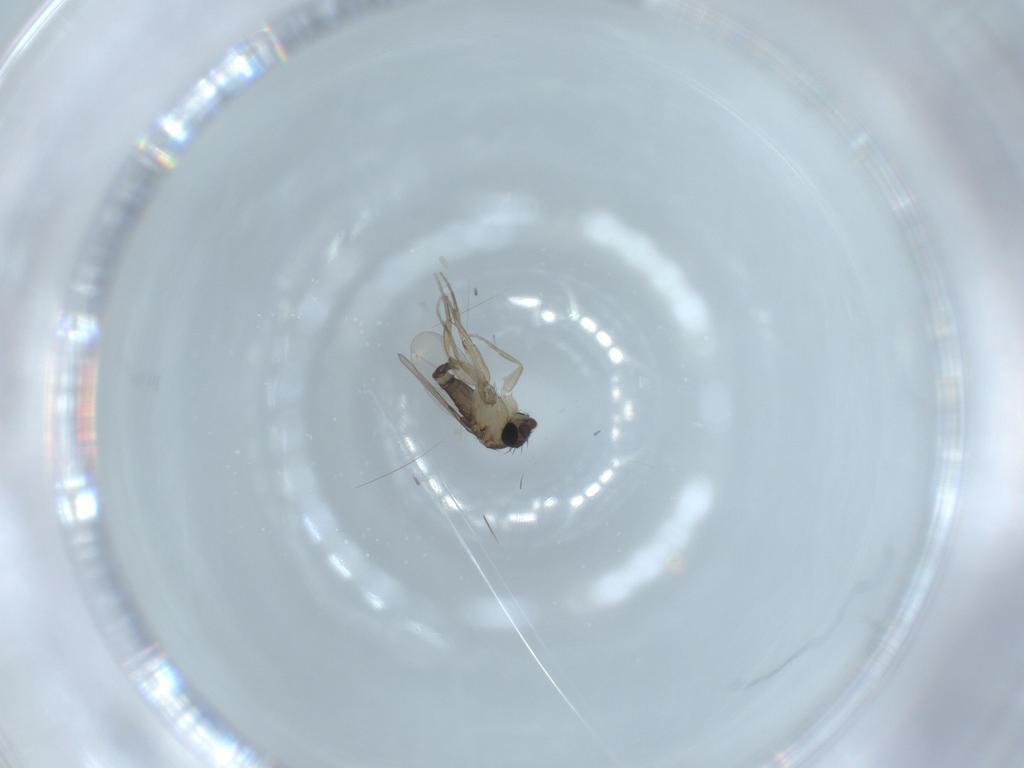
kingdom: Animalia
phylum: Arthropoda
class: Insecta
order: Diptera
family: Phoridae
